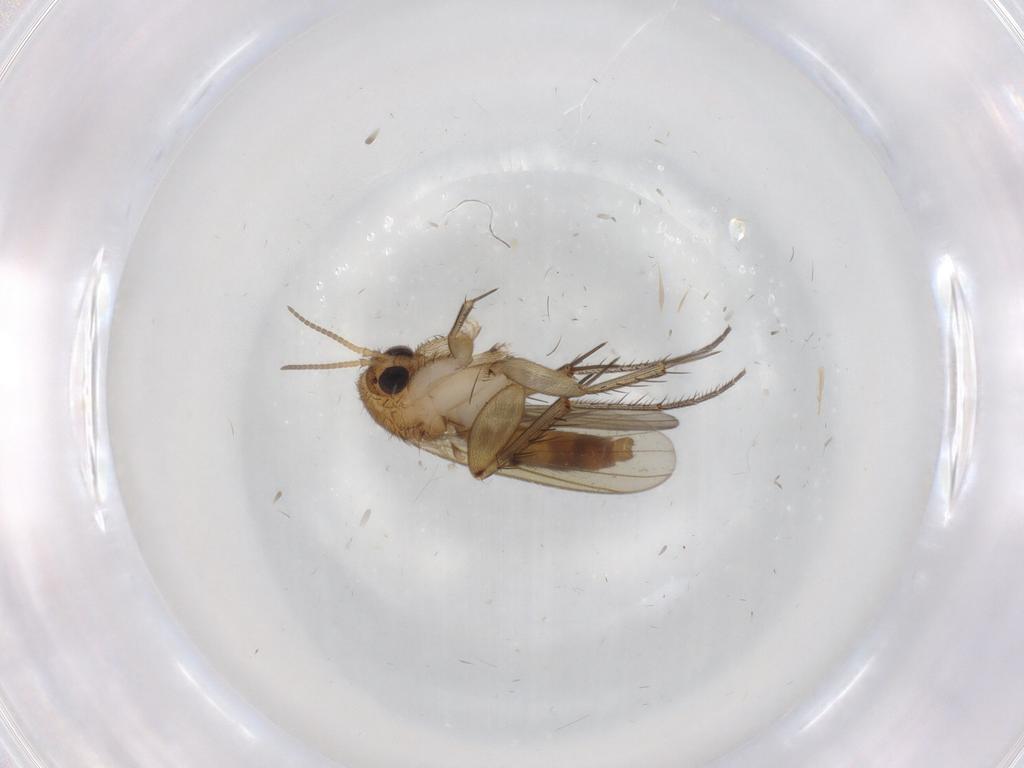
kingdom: Animalia
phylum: Arthropoda
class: Insecta
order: Diptera
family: Mycetophilidae
